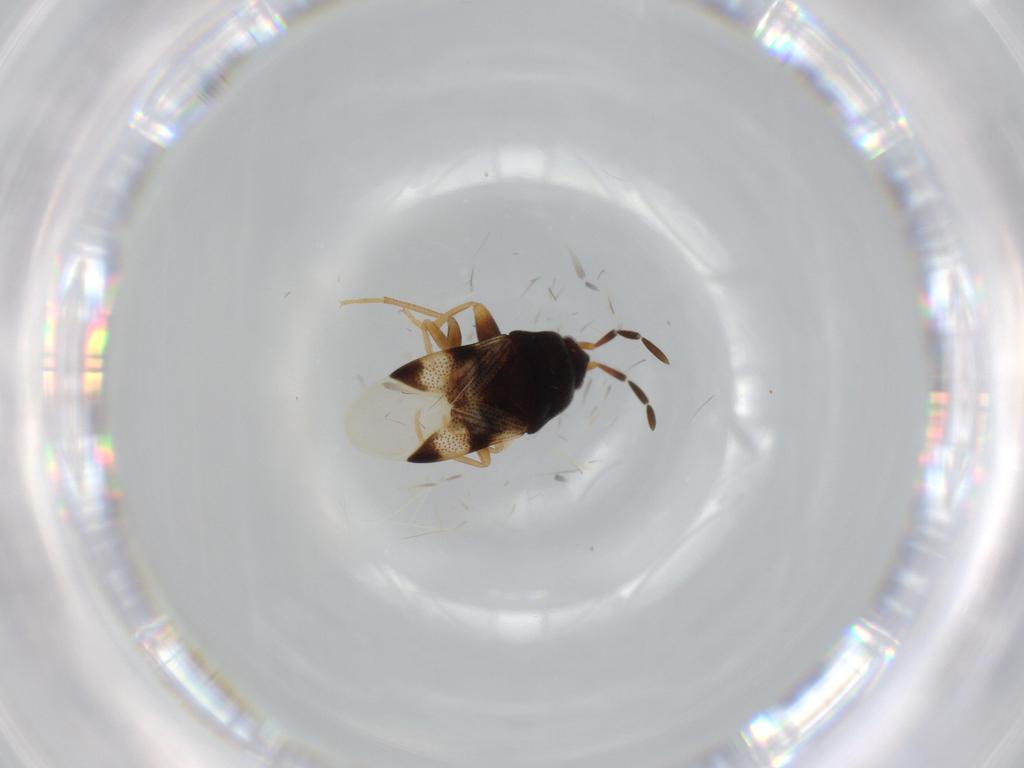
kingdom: Animalia
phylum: Arthropoda
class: Insecta
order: Hemiptera
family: Rhyparochromidae
